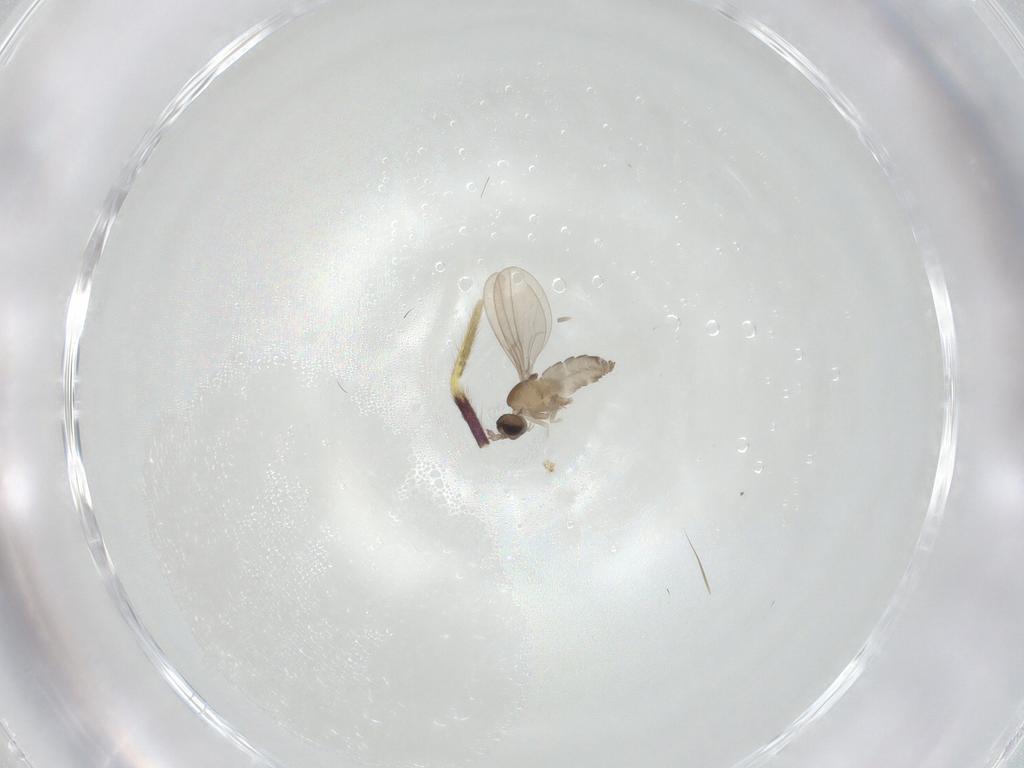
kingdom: Animalia
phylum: Arthropoda
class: Insecta
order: Diptera
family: Cecidomyiidae
